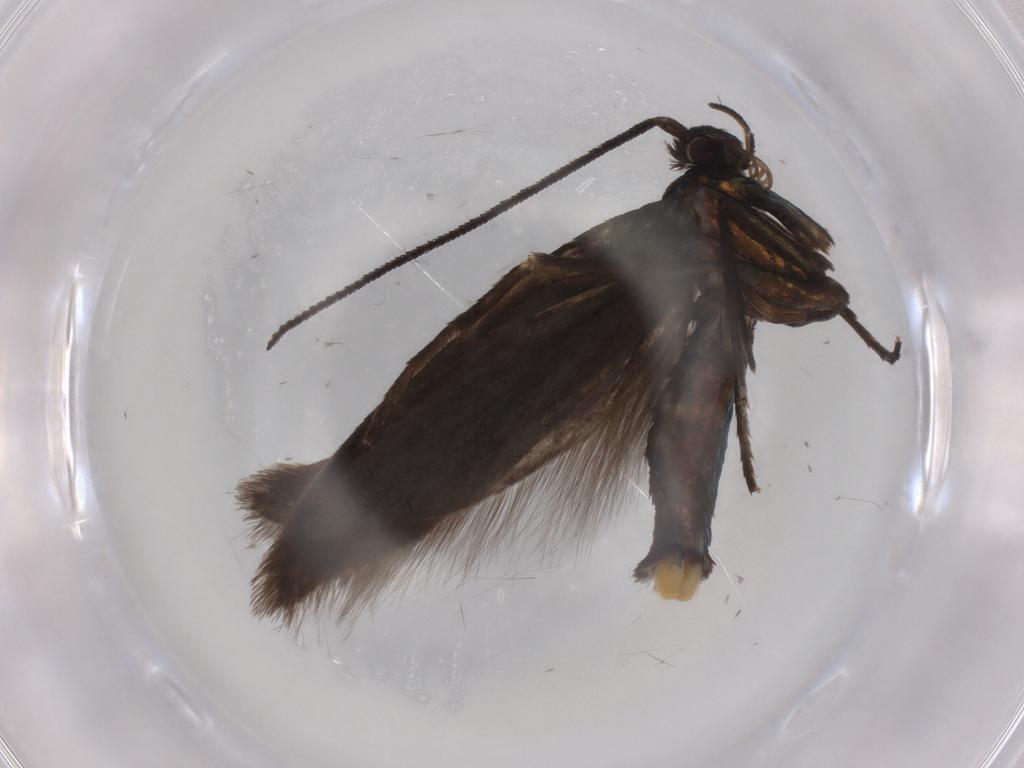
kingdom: Animalia
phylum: Arthropoda
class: Insecta
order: Lepidoptera
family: Argyresthiidae
